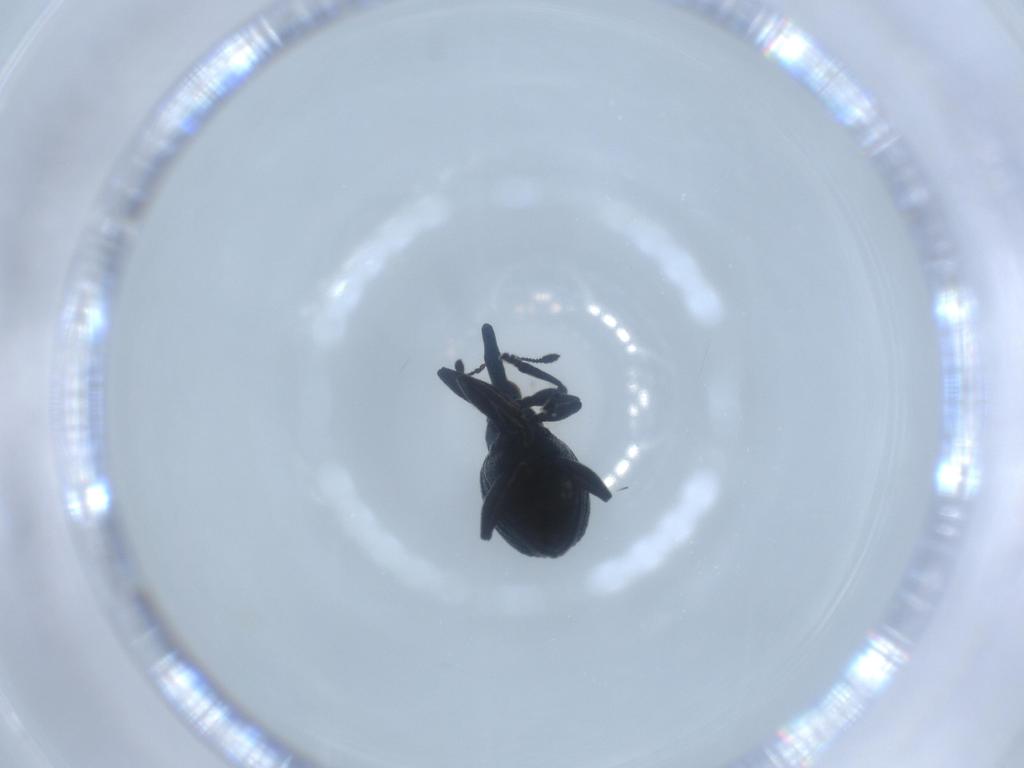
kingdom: Animalia
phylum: Arthropoda
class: Insecta
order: Coleoptera
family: Brentidae
